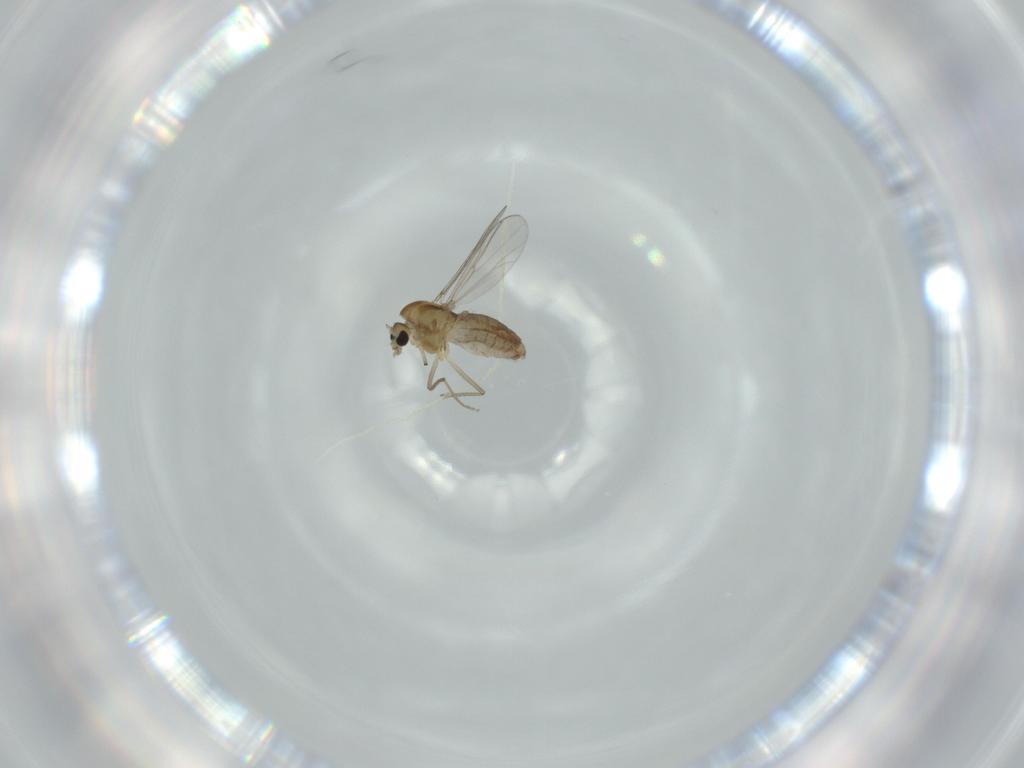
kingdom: Animalia
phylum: Arthropoda
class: Insecta
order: Diptera
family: Chironomidae
